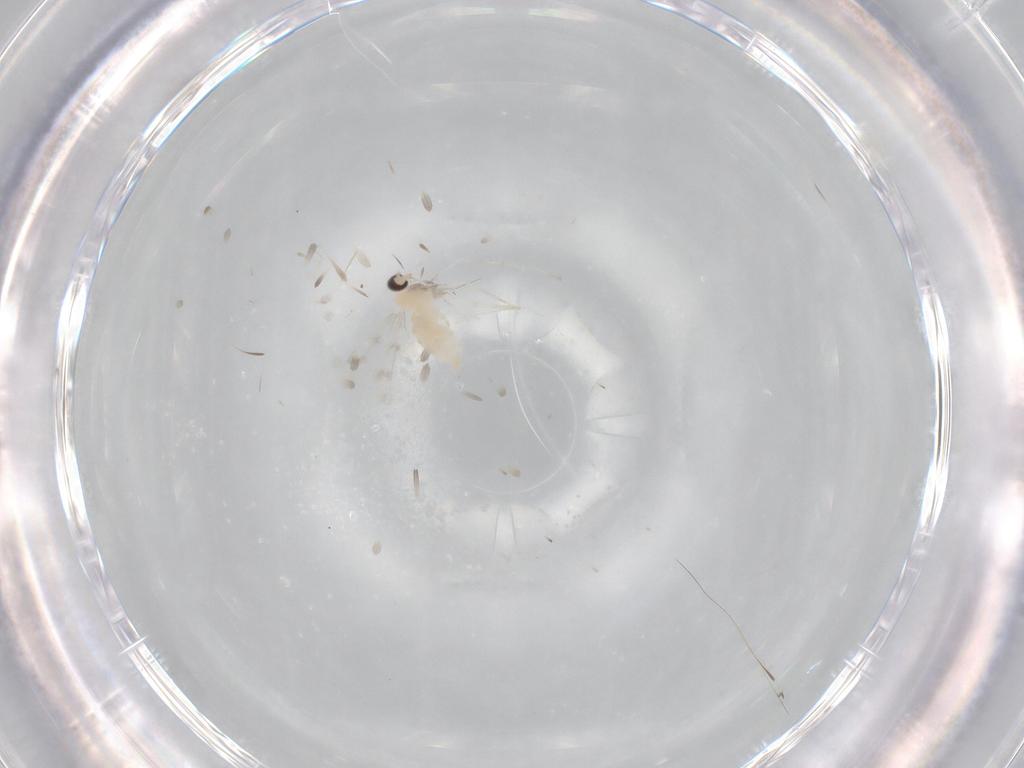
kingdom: Animalia
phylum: Arthropoda
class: Insecta
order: Diptera
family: Cecidomyiidae
